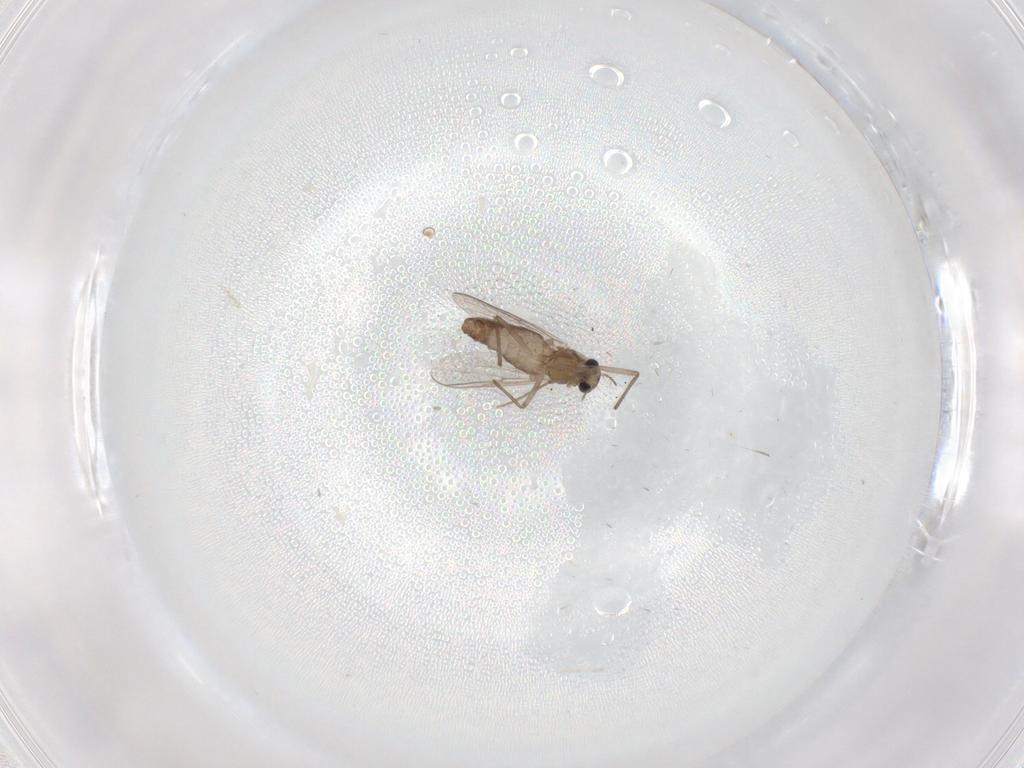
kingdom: Animalia
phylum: Arthropoda
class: Insecta
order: Diptera
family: Chironomidae
